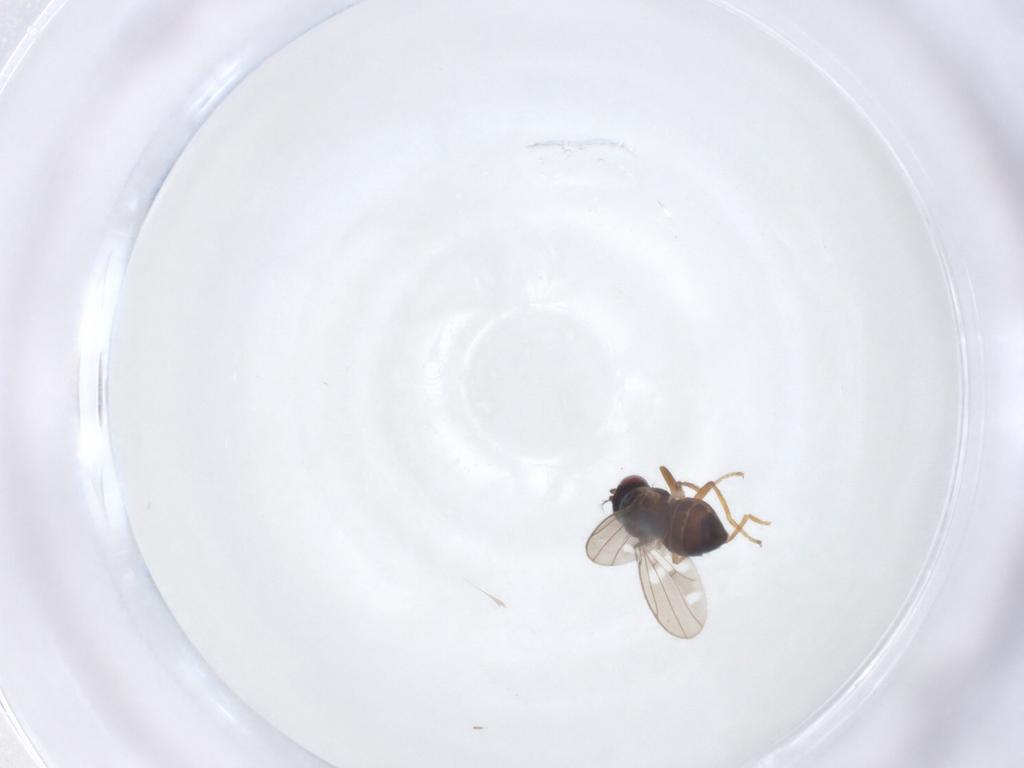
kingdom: Animalia
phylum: Arthropoda
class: Insecta
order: Diptera
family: Ephydridae
